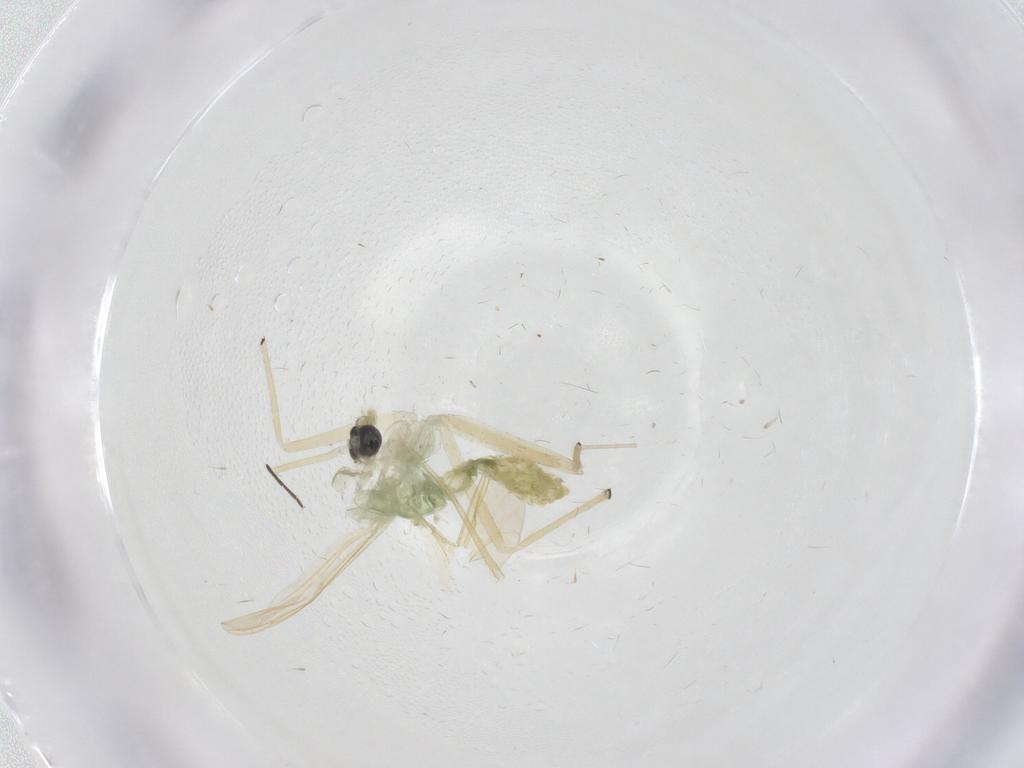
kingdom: Animalia
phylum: Arthropoda
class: Insecta
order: Diptera
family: Chironomidae
